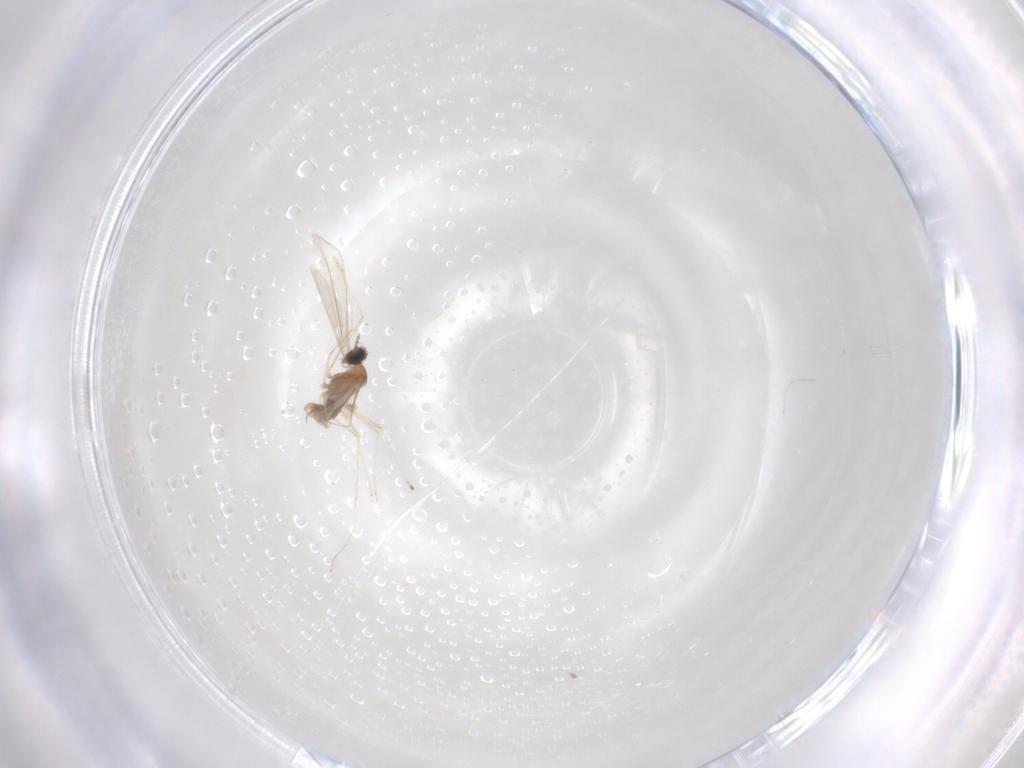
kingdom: Animalia
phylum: Arthropoda
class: Insecta
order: Diptera
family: Cecidomyiidae
